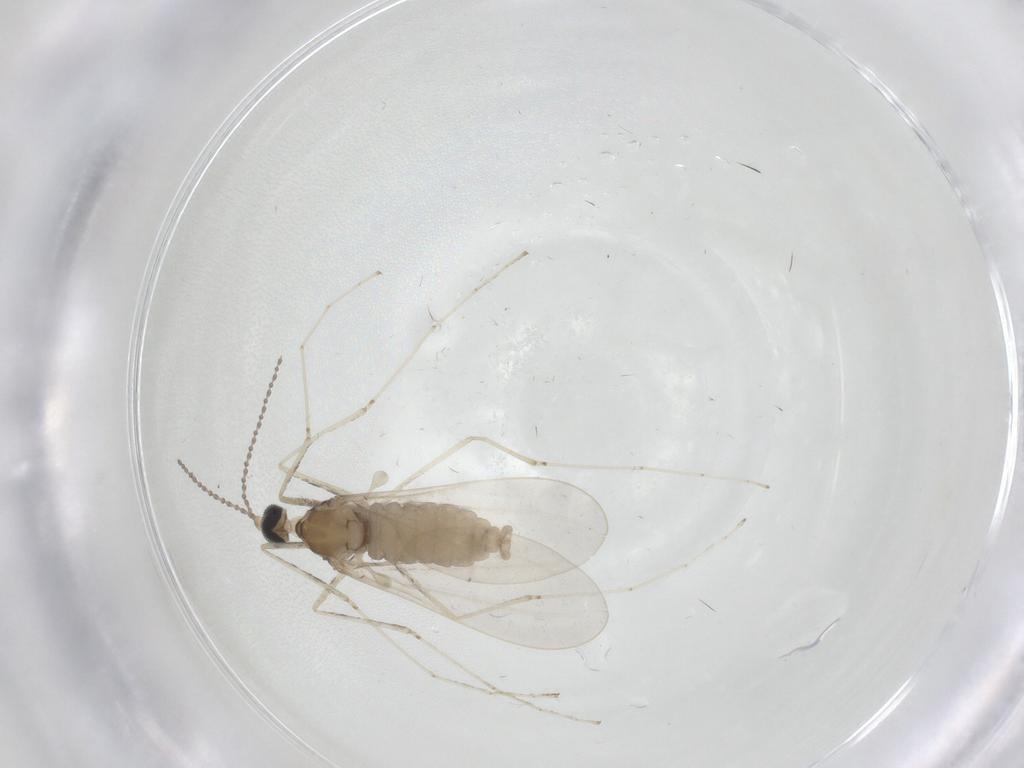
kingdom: Animalia
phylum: Arthropoda
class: Insecta
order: Diptera
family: Cecidomyiidae
